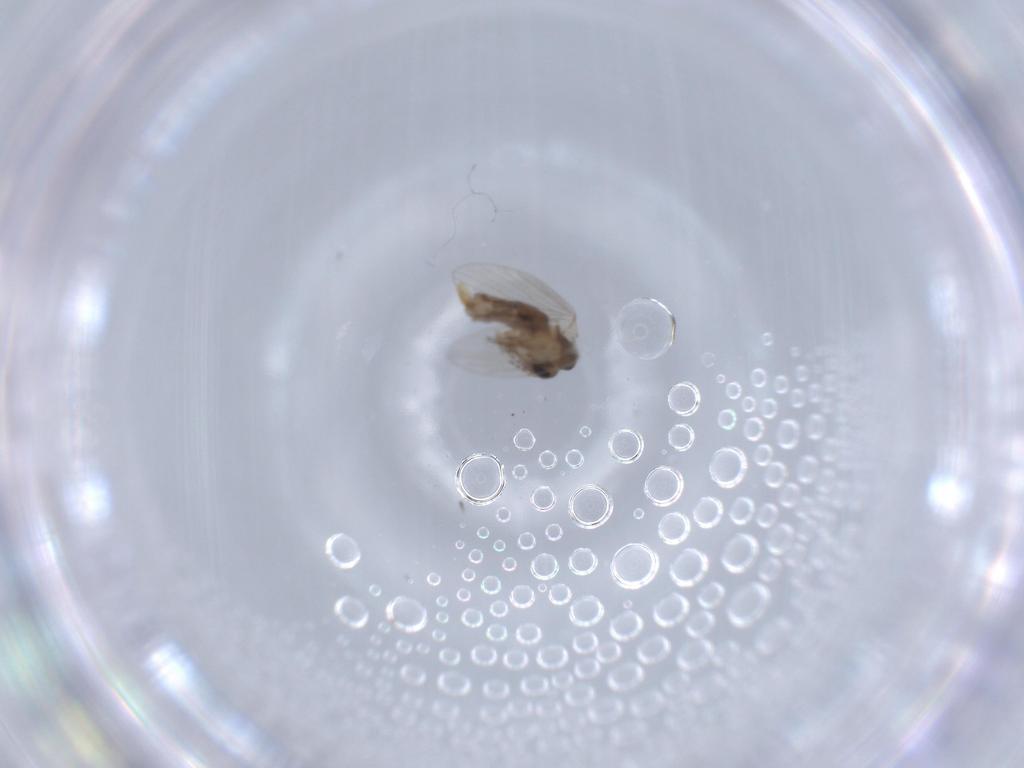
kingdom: Animalia
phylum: Arthropoda
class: Insecta
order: Diptera
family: Psychodidae
